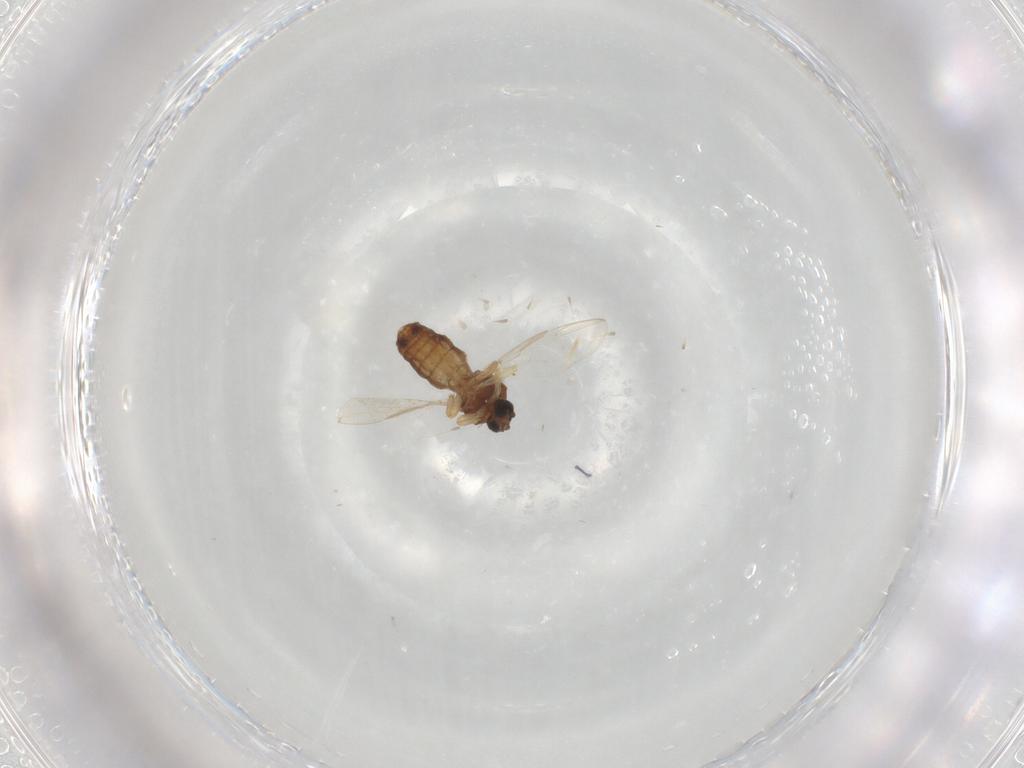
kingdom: Animalia
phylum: Arthropoda
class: Insecta
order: Diptera
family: Ceratopogonidae
